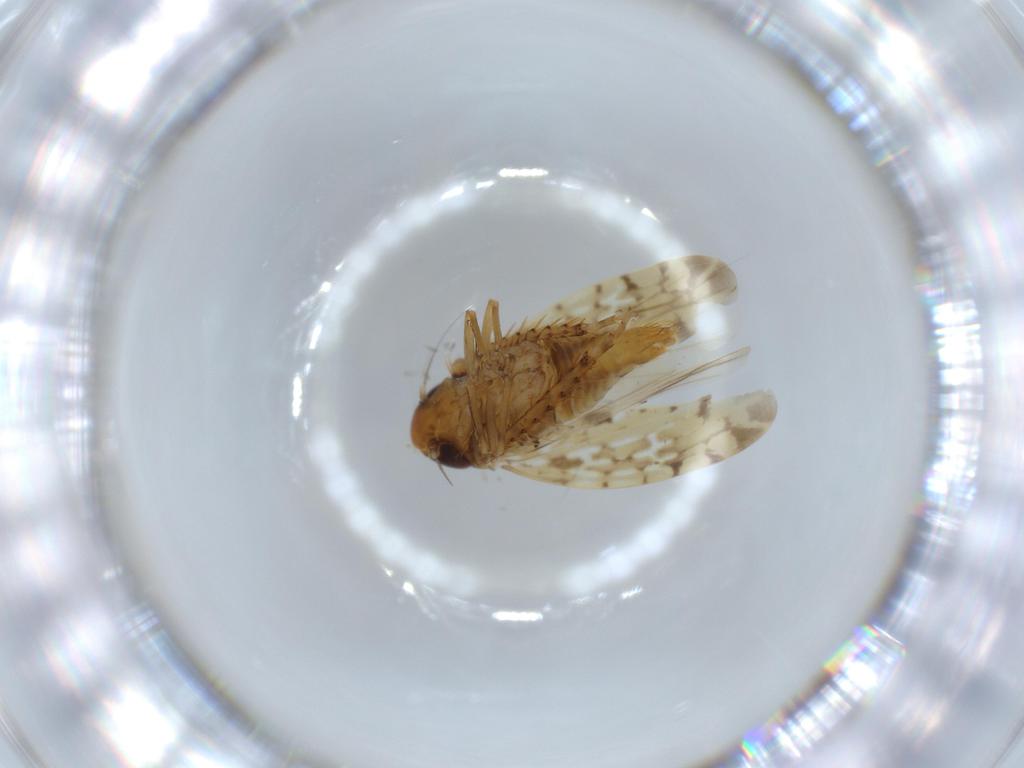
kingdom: Animalia
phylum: Arthropoda
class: Insecta
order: Hemiptera
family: Cicadellidae
